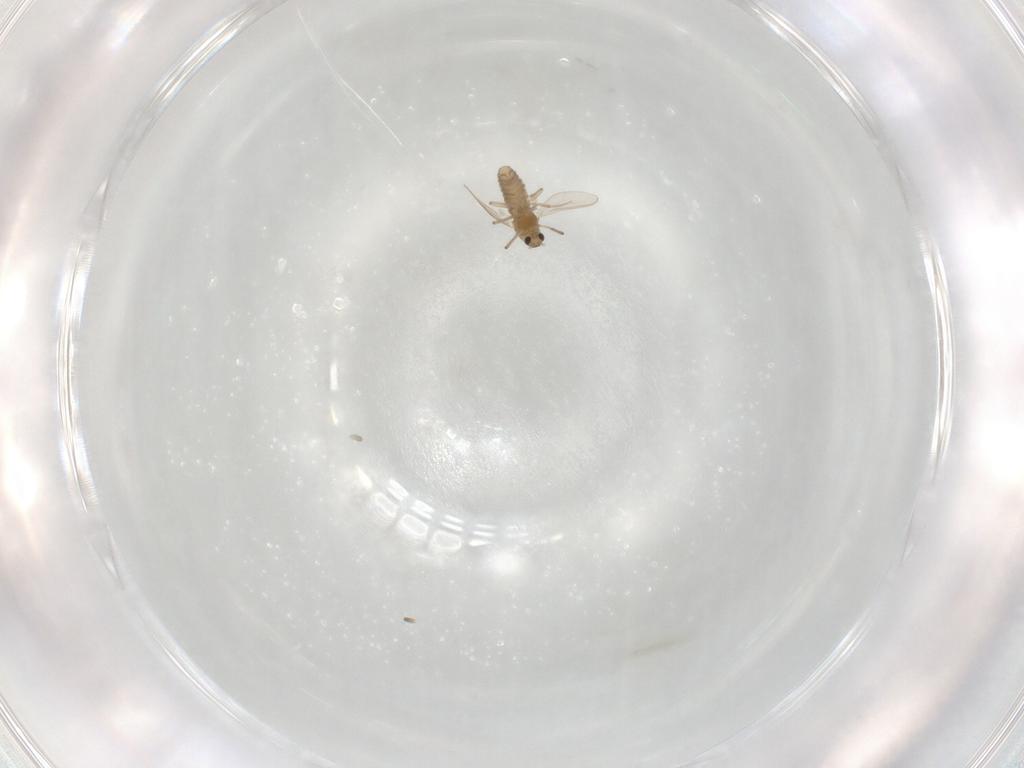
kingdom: Animalia
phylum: Arthropoda
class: Insecta
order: Diptera
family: Chironomidae
